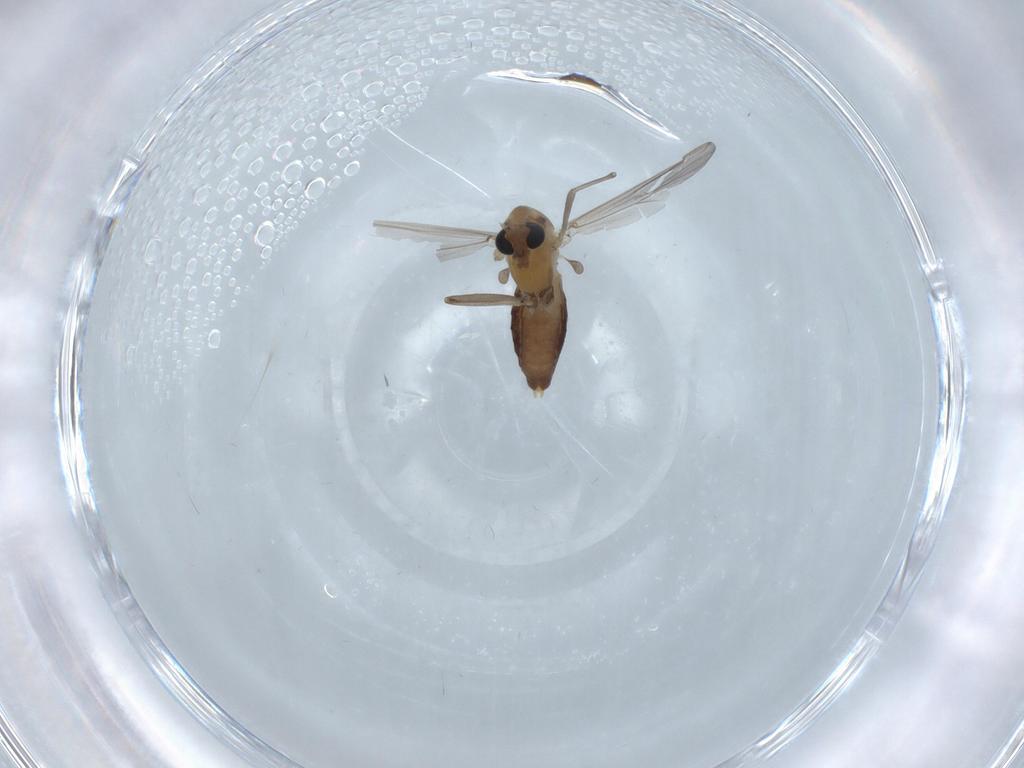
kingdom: Animalia
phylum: Arthropoda
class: Insecta
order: Diptera
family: Chironomidae
